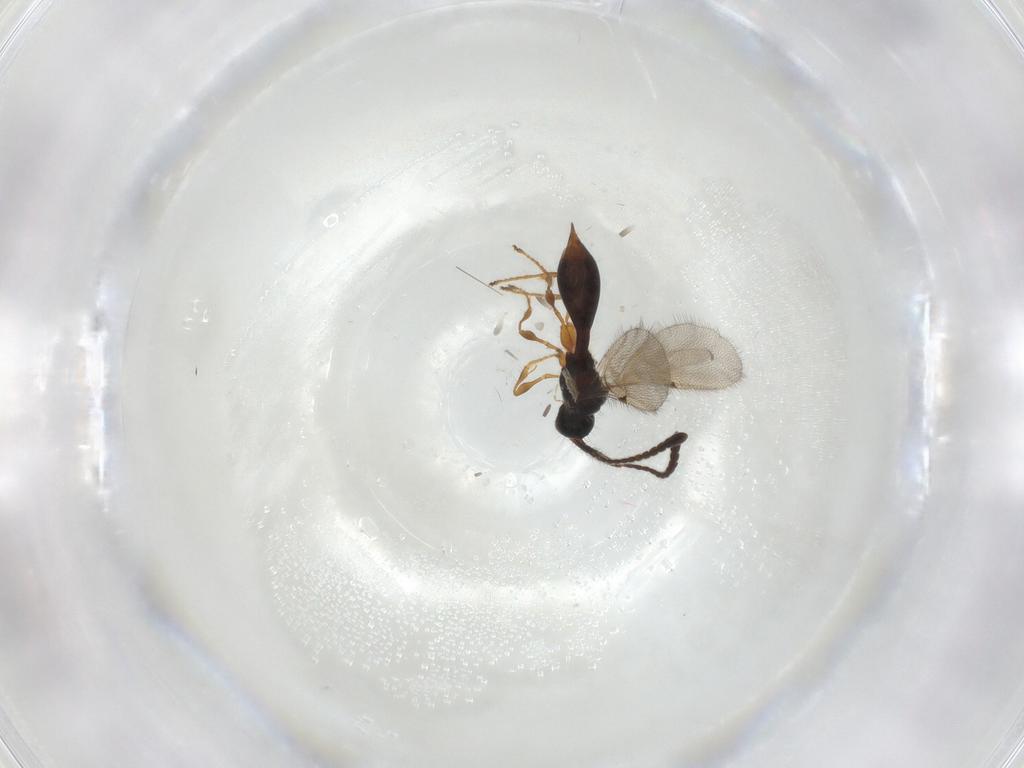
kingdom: Animalia
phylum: Arthropoda
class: Insecta
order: Hymenoptera
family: Diapriidae
